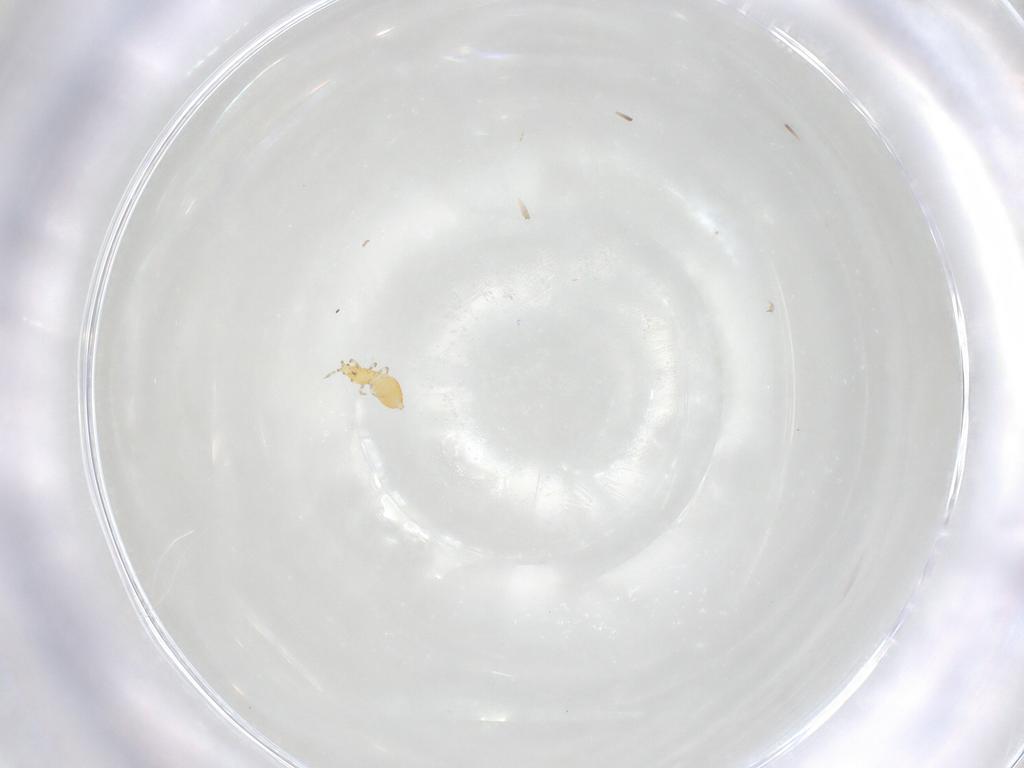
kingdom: Animalia
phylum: Arthropoda
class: Insecta
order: Thysanoptera
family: Thripidae
